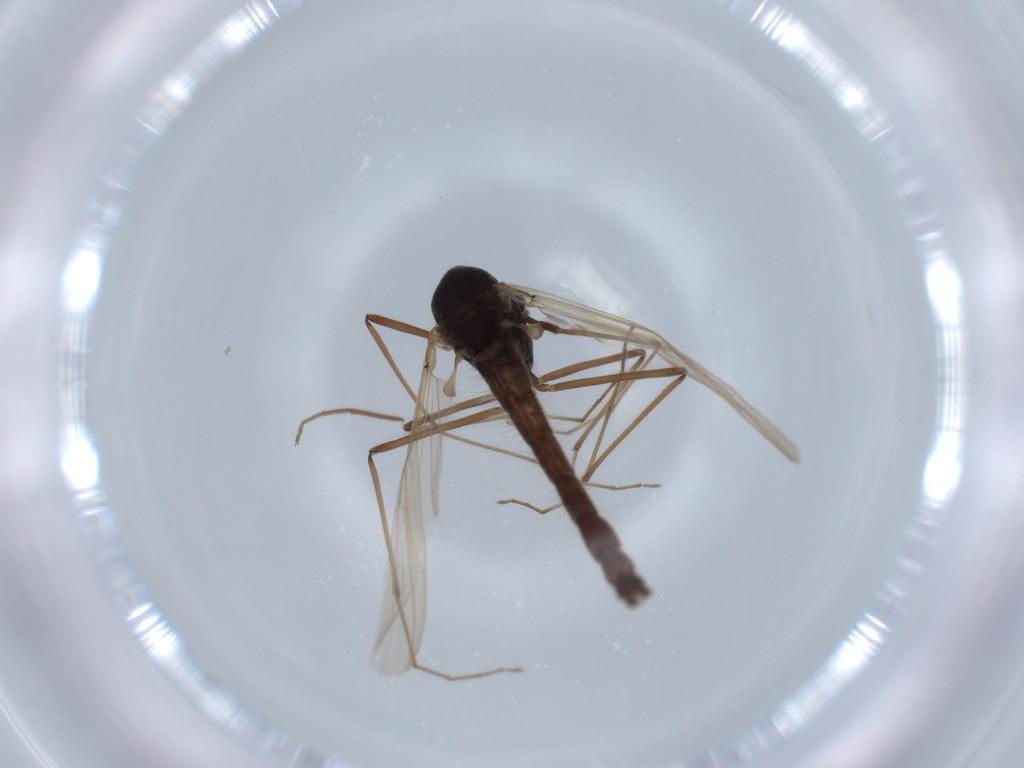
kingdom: Animalia
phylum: Arthropoda
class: Insecta
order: Diptera
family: Sciaridae
